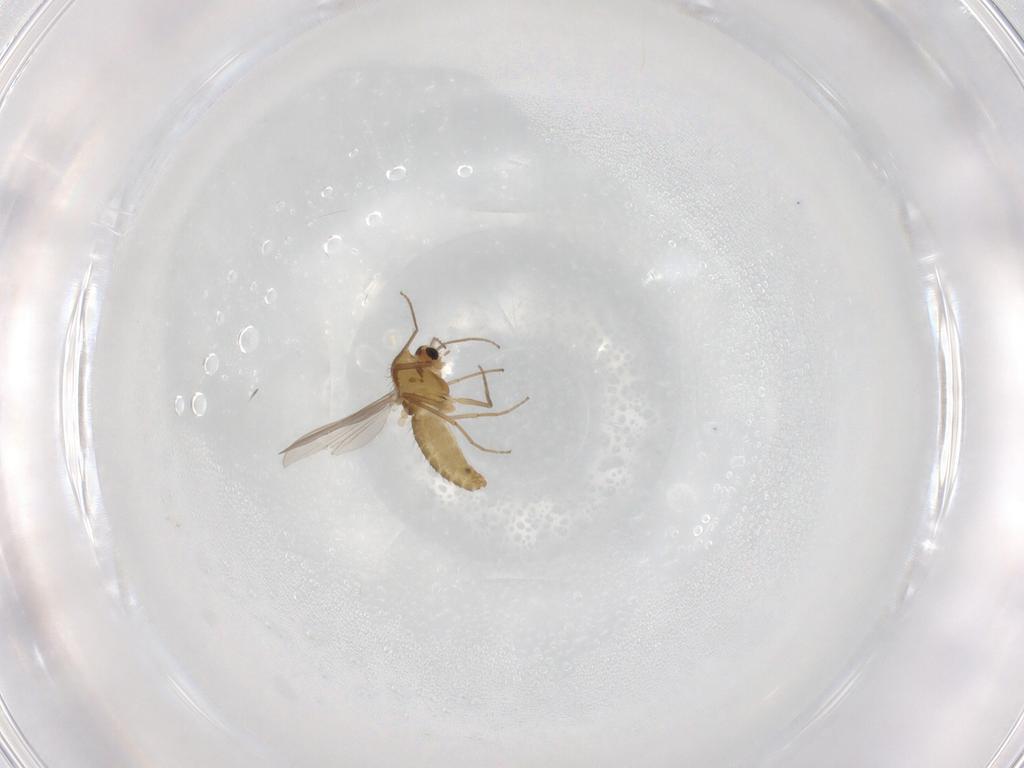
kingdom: Animalia
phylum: Arthropoda
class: Insecta
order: Diptera
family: Chironomidae
